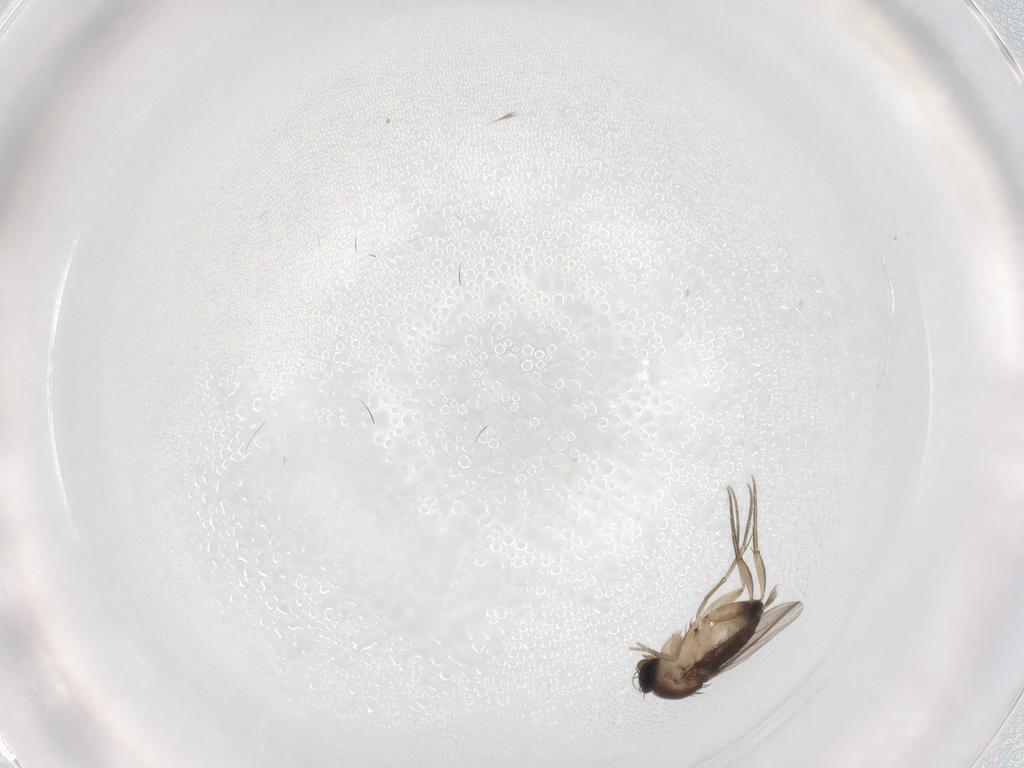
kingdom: Animalia
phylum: Arthropoda
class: Insecta
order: Diptera
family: Phoridae
